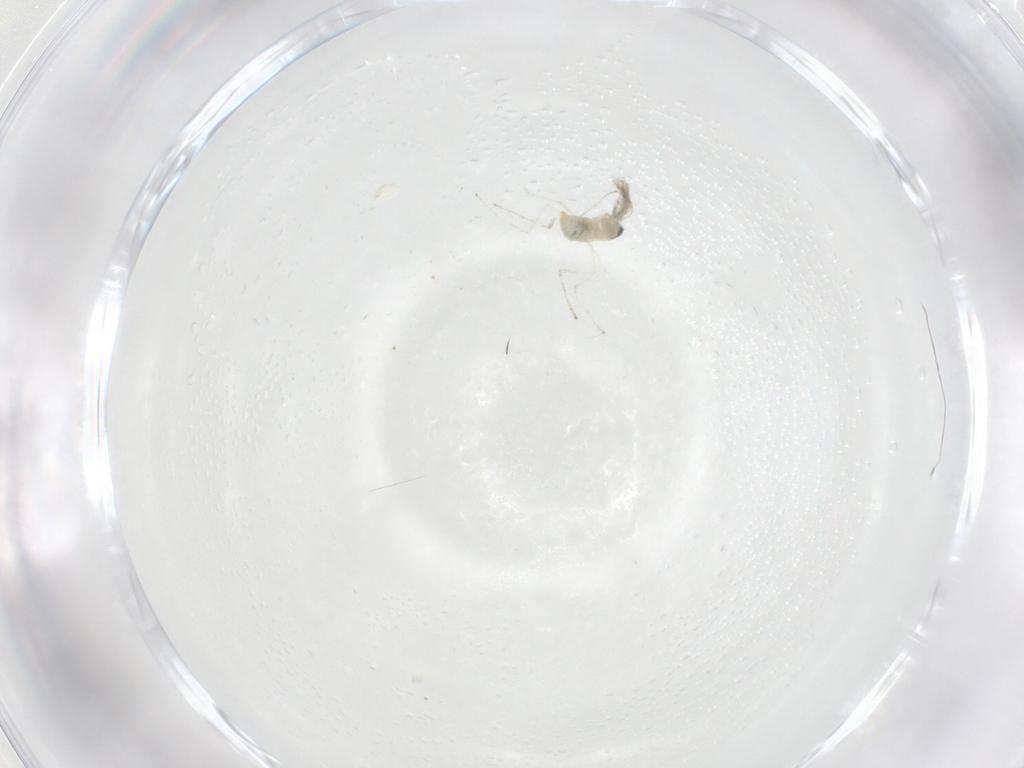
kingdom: Animalia
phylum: Arthropoda
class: Insecta
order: Diptera
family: Cecidomyiidae
